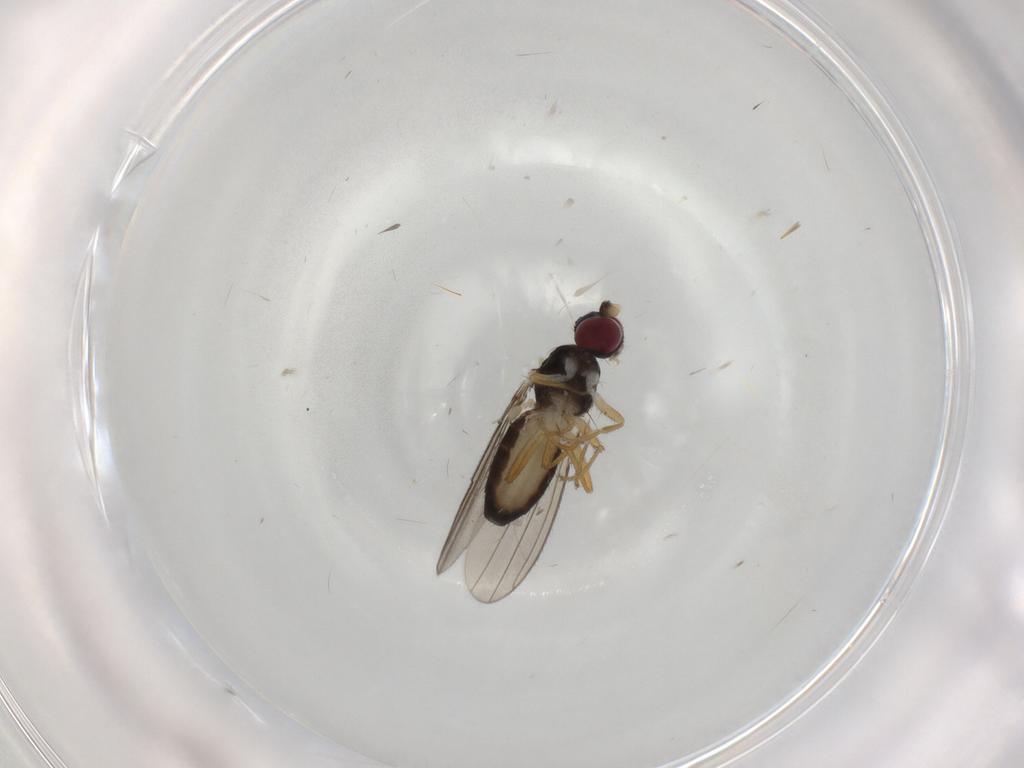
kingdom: Animalia
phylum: Arthropoda
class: Insecta
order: Diptera
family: Anthomyzidae
